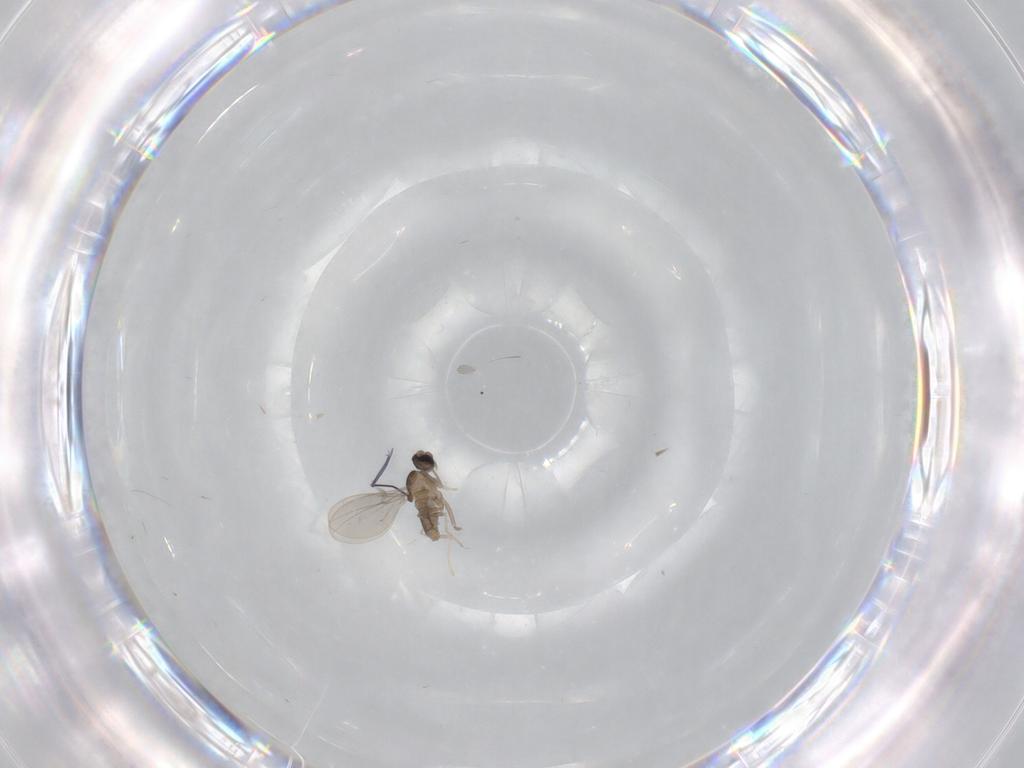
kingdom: Animalia
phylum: Arthropoda
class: Insecta
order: Diptera
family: Chironomidae
